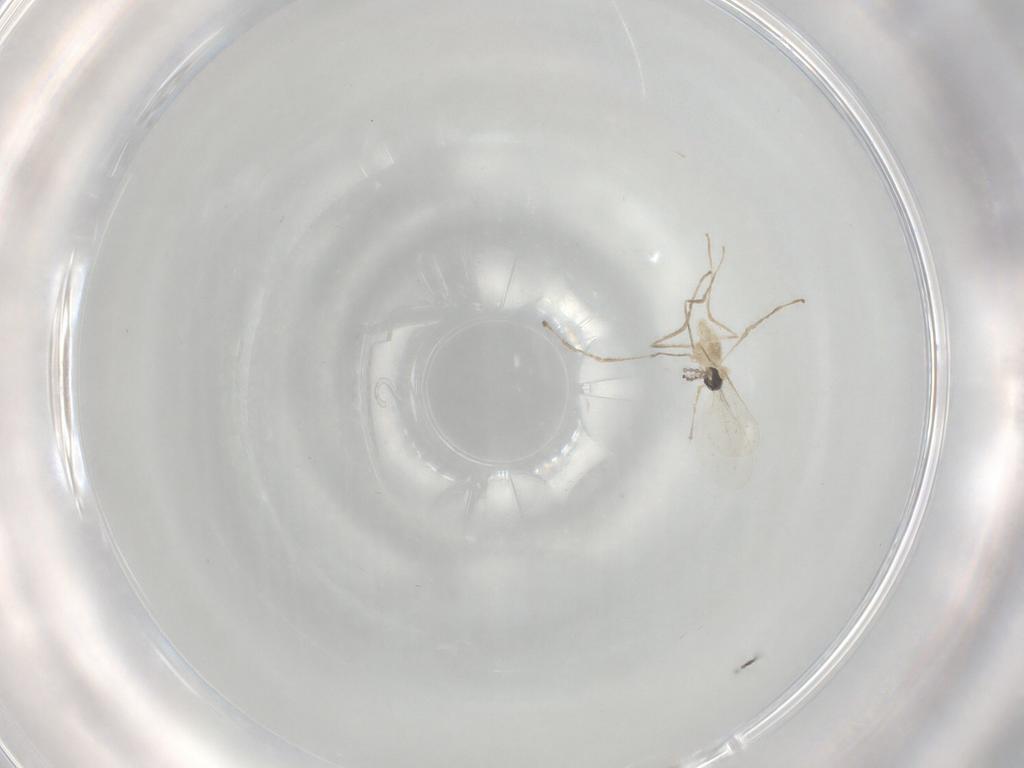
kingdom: Animalia
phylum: Arthropoda
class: Insecta
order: Diptera
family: Cecidomyiidae
